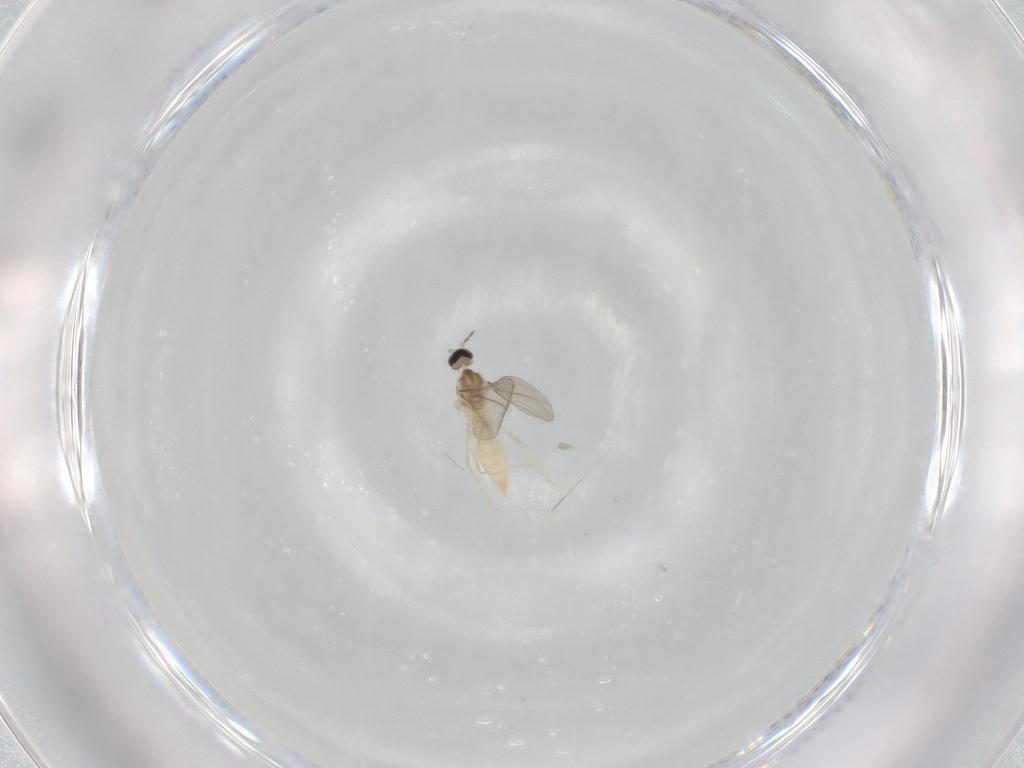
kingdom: Animalia
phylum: Arthropoda
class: Insecta
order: Diptera
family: Cecidomyiidae
